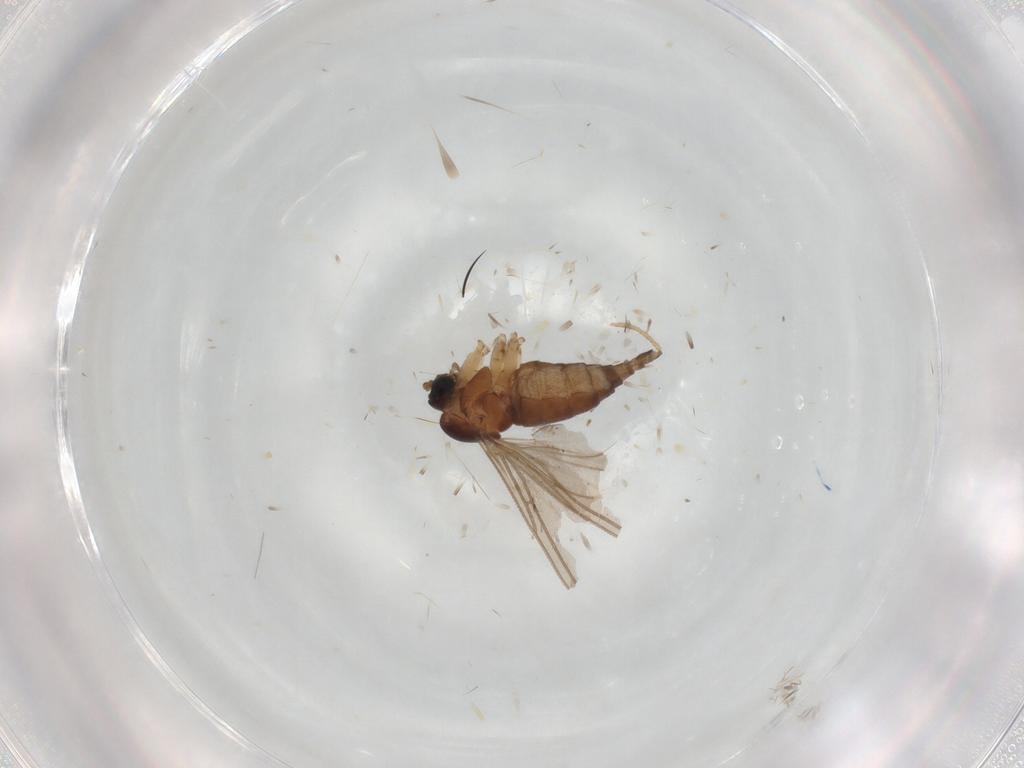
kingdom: Animalia
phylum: Arthropoda
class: Insecta
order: Diptera
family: Sciaridae
